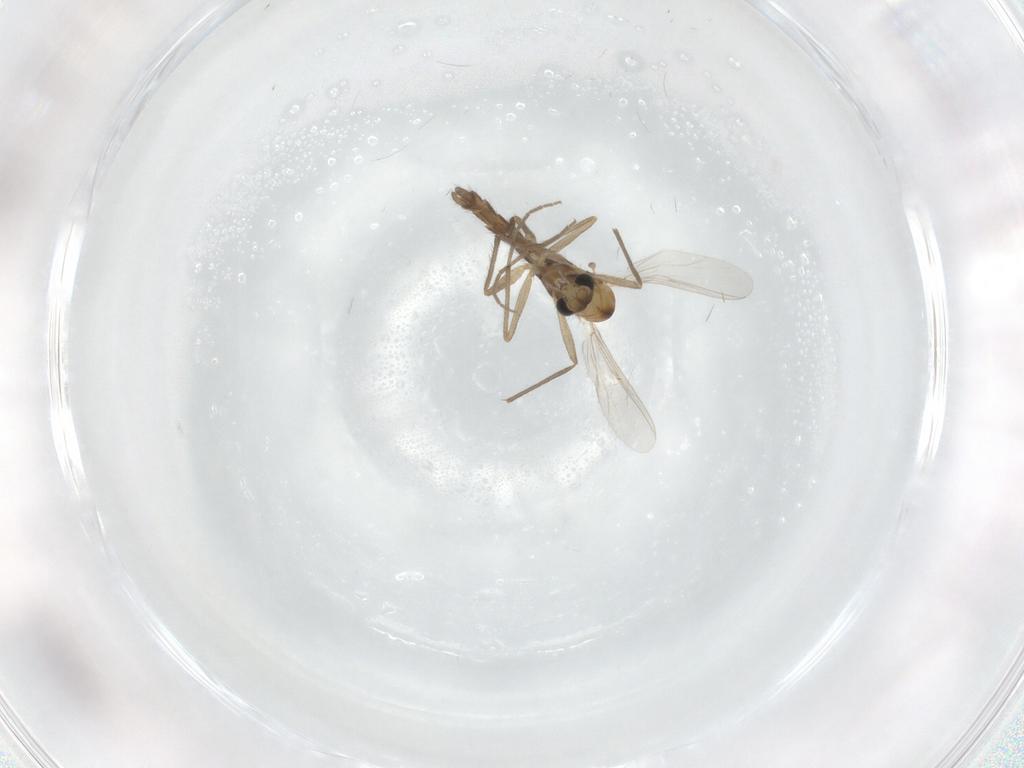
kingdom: Animalia
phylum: Arthropoda
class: Insecta
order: Diptera
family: Chironomidae
